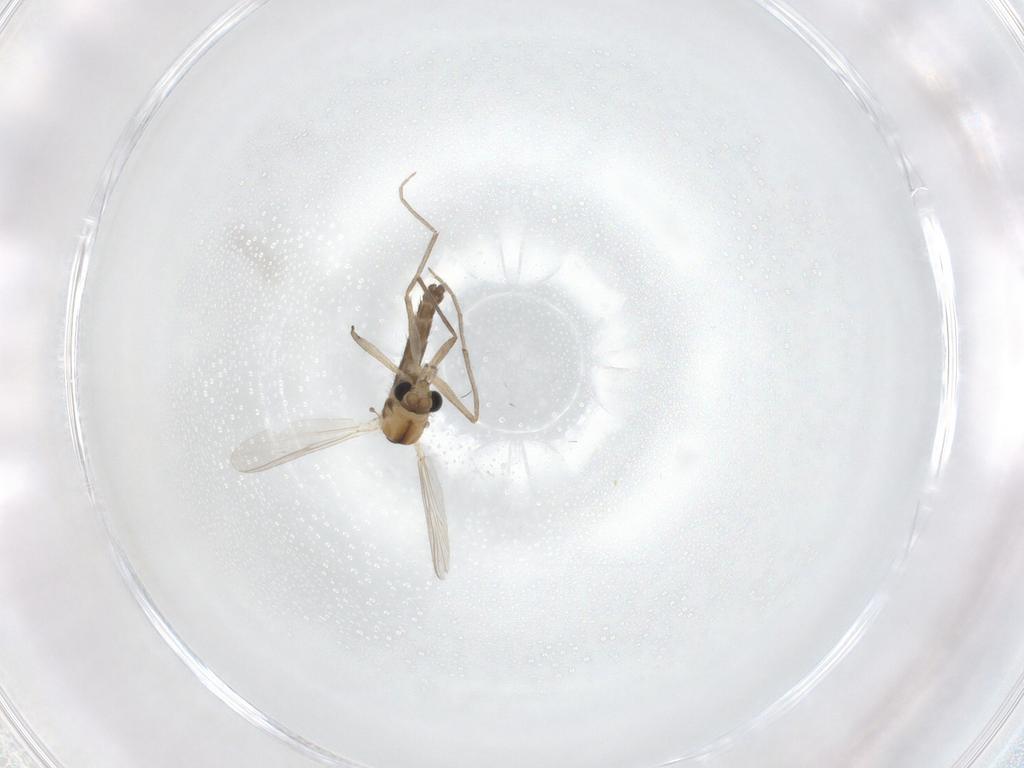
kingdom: Animalia
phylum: Arthropoda
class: Insecta
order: Diptera
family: Chironomidae
